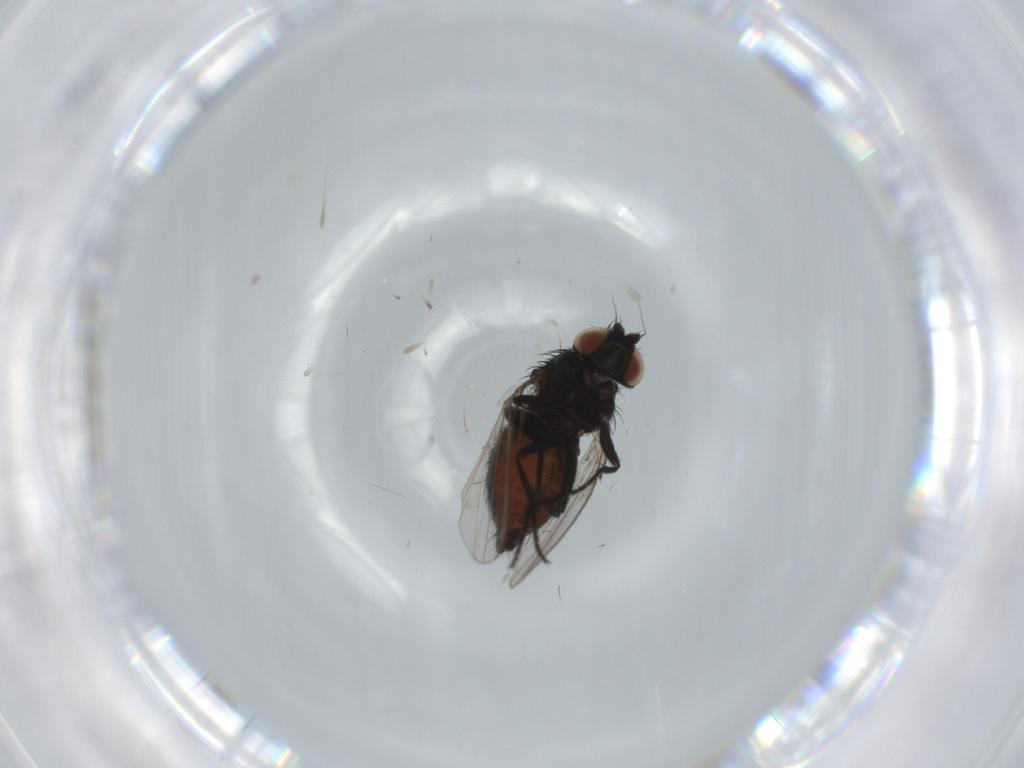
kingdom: Animalia
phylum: Arthropoda
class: Insecta
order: Diptera
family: Milichiidae
